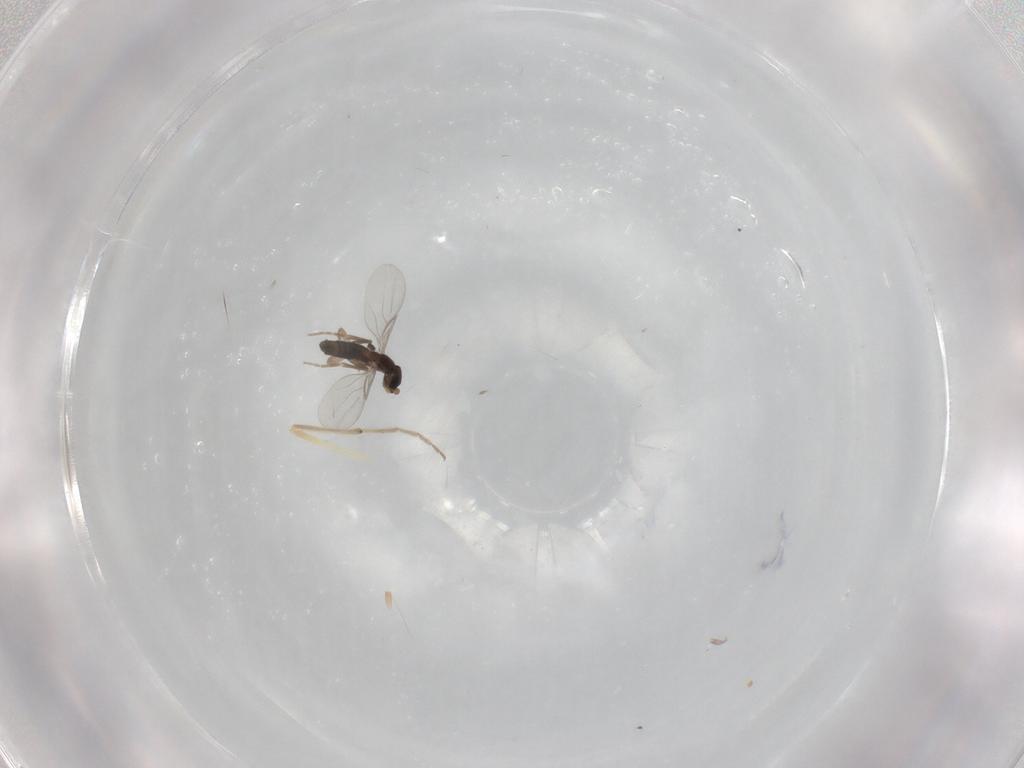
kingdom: Animalia
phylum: Arthropoda
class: Insecta
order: Diptera
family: Phoridae
